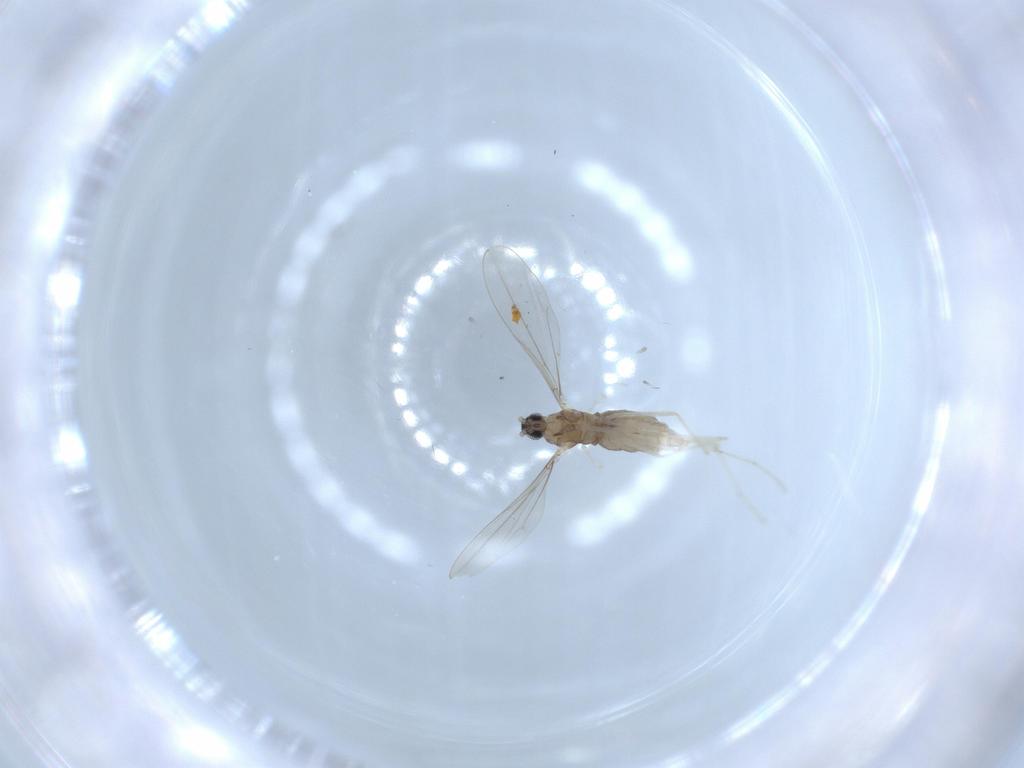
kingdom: Animalia
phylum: Arthropoda
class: Insecta
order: Diptera
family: Cecidomyiidae
